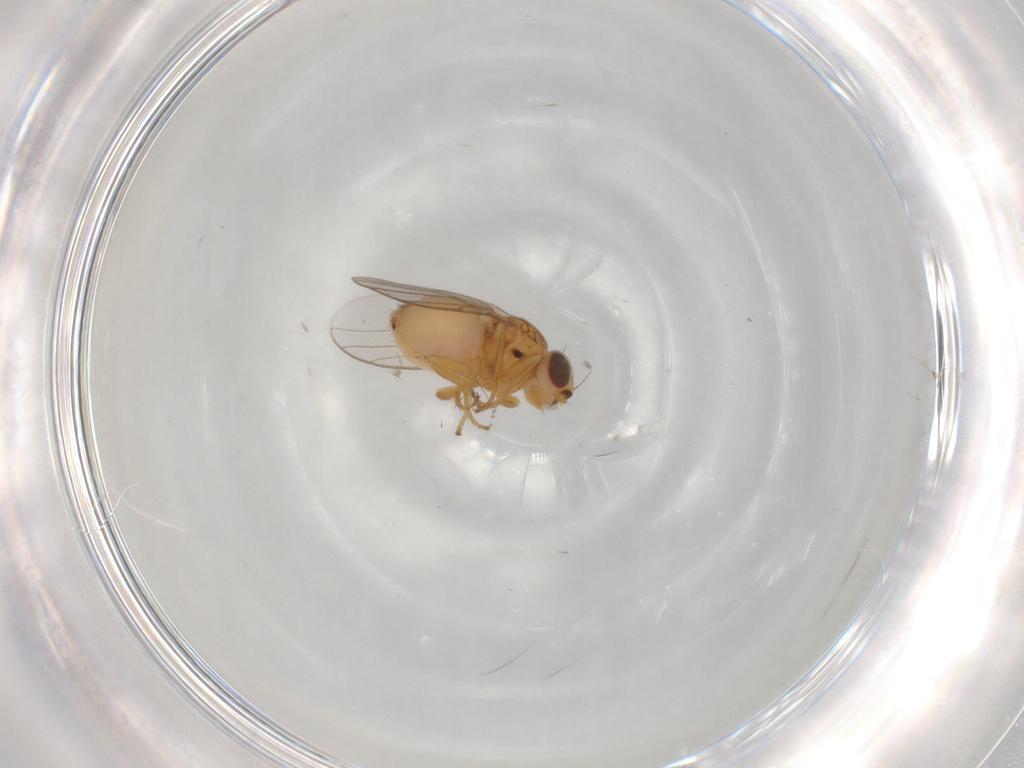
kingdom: Animalia
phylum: Arthropoda
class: Insecta
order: Diptera
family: Chloropidae
